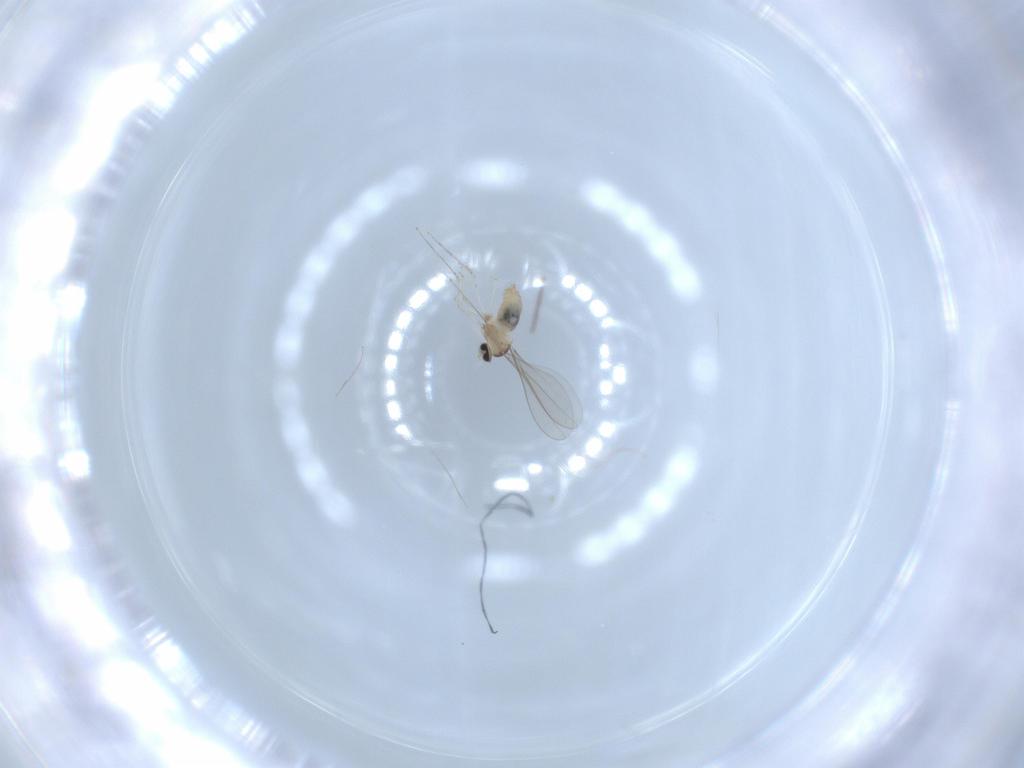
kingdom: Animalia
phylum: Arthropoda
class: Insecta
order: Diptera
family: Cecidomyiidae
